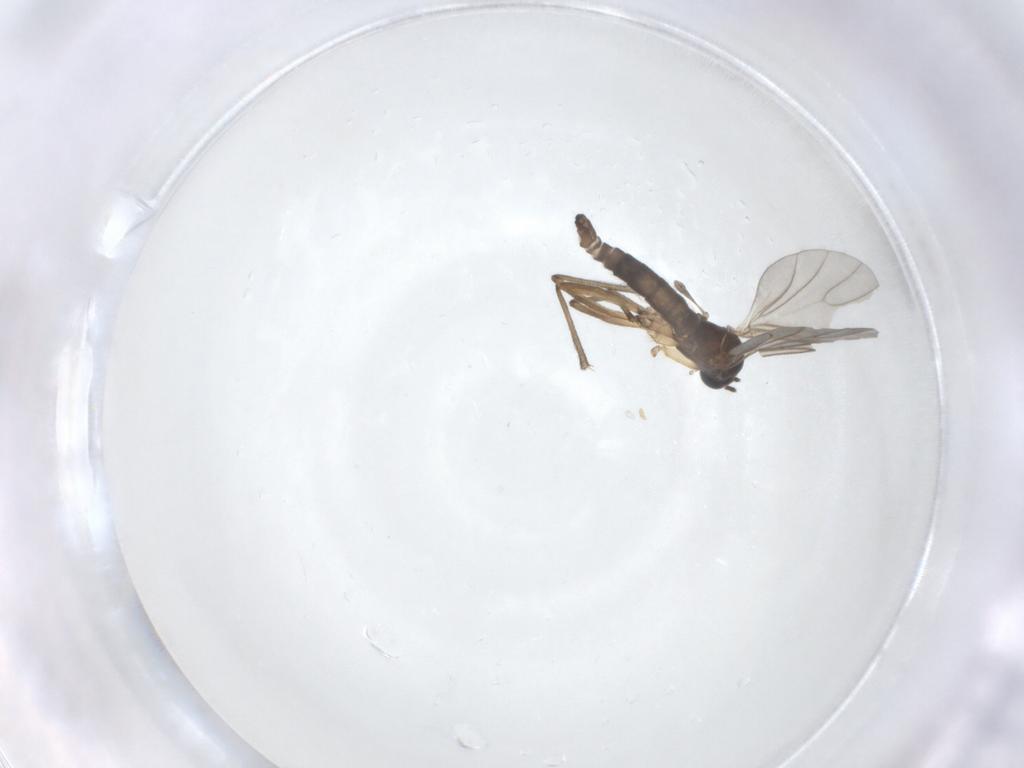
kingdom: Animalia
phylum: Arthropoda
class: Insecta
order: Diptera
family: Sciaridae
